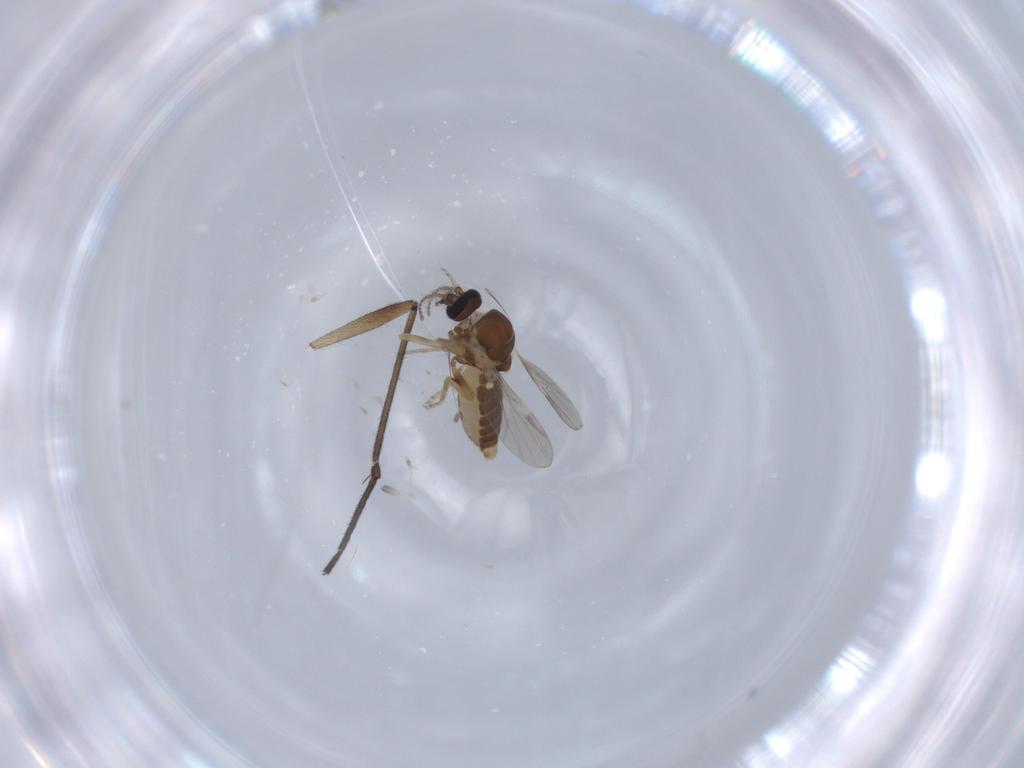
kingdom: Animalia
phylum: Arthropoda
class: Insecta
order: Diptera
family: Ceratopogonidae
